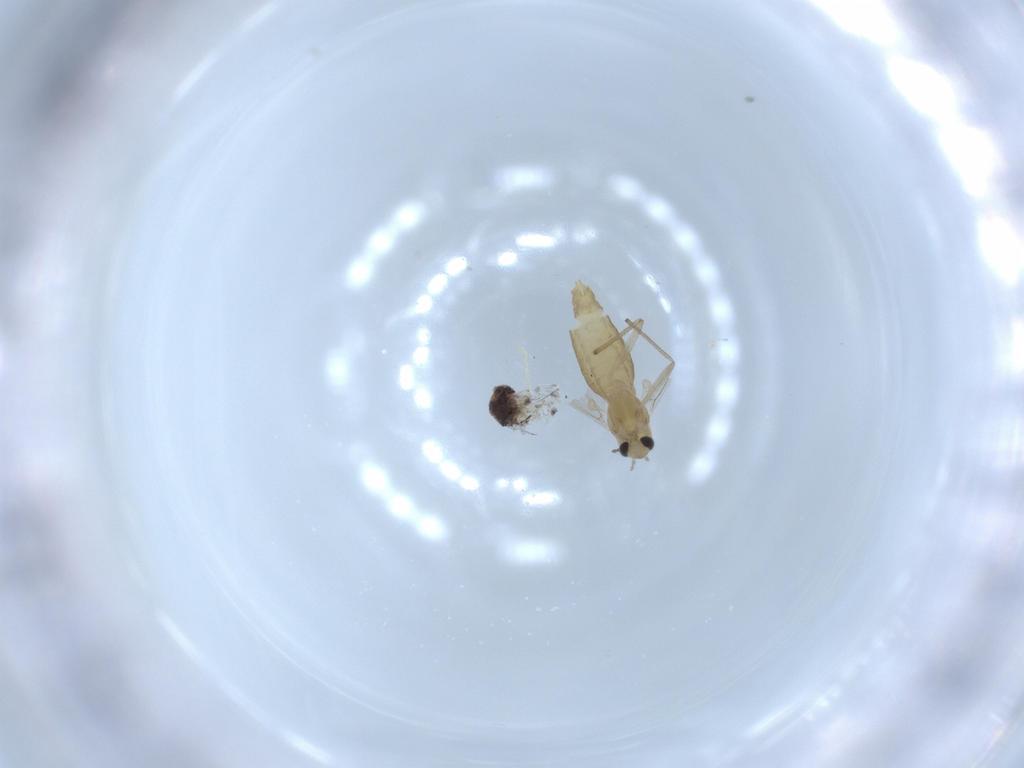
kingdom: Animalia
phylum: Arthropoda
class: Insecta
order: Diptera
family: Chironomidae
